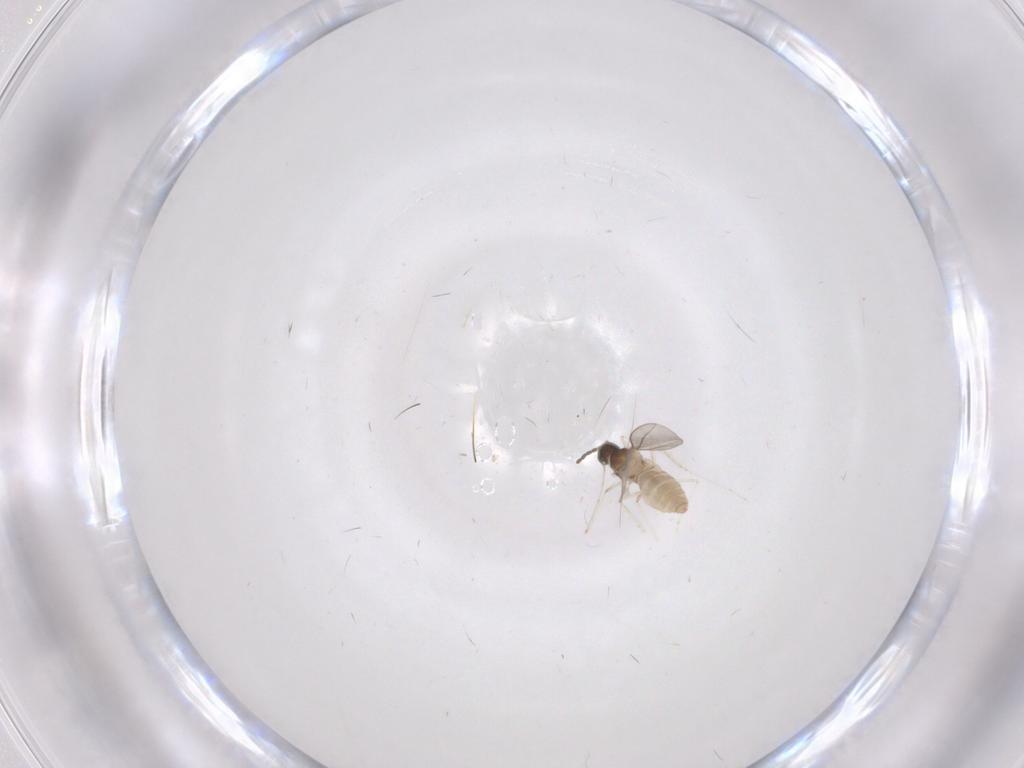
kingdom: Animalia
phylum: Arthropoda
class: Insecta
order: Diptera
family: Cecidomyiidae
